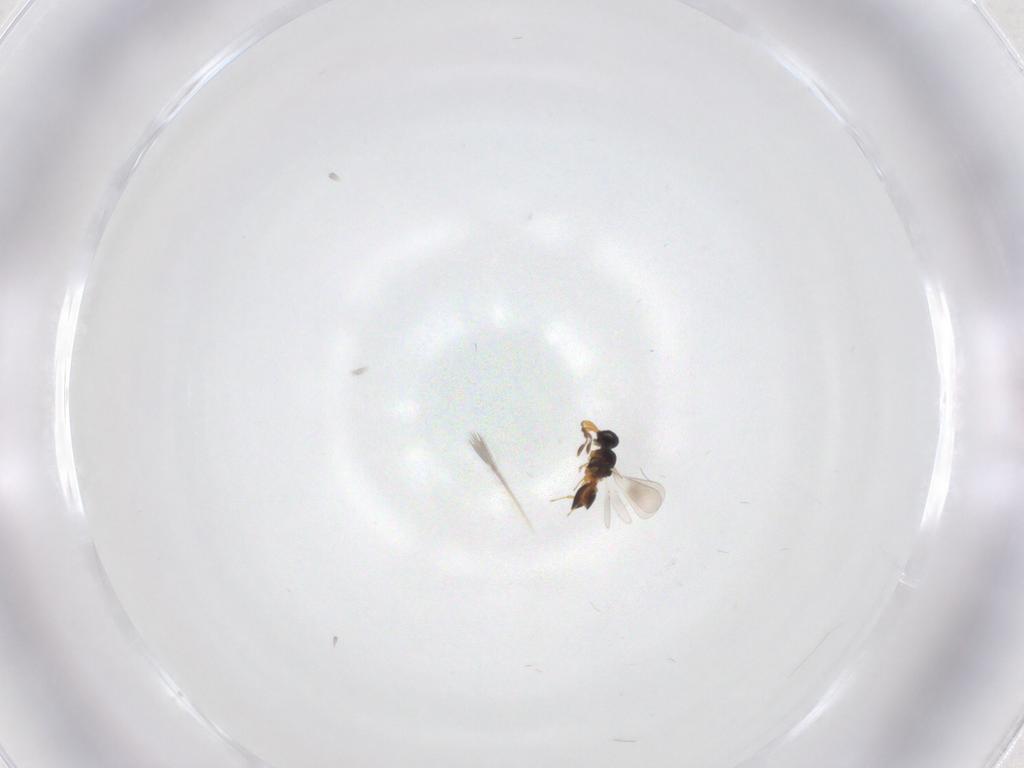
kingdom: Animalia
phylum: Arthropoda
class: Insecta
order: Hymenoptera
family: Bethylidae
